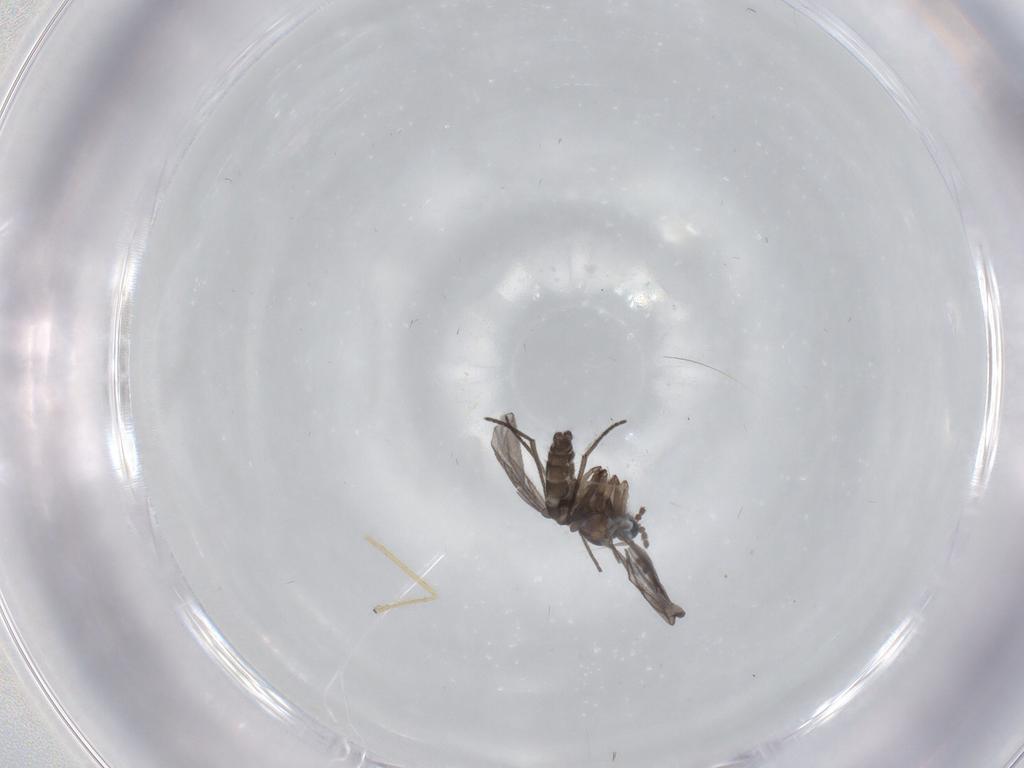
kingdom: Animalia
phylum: Arthropoda
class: Insecta
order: Diptera
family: Chironomidae
